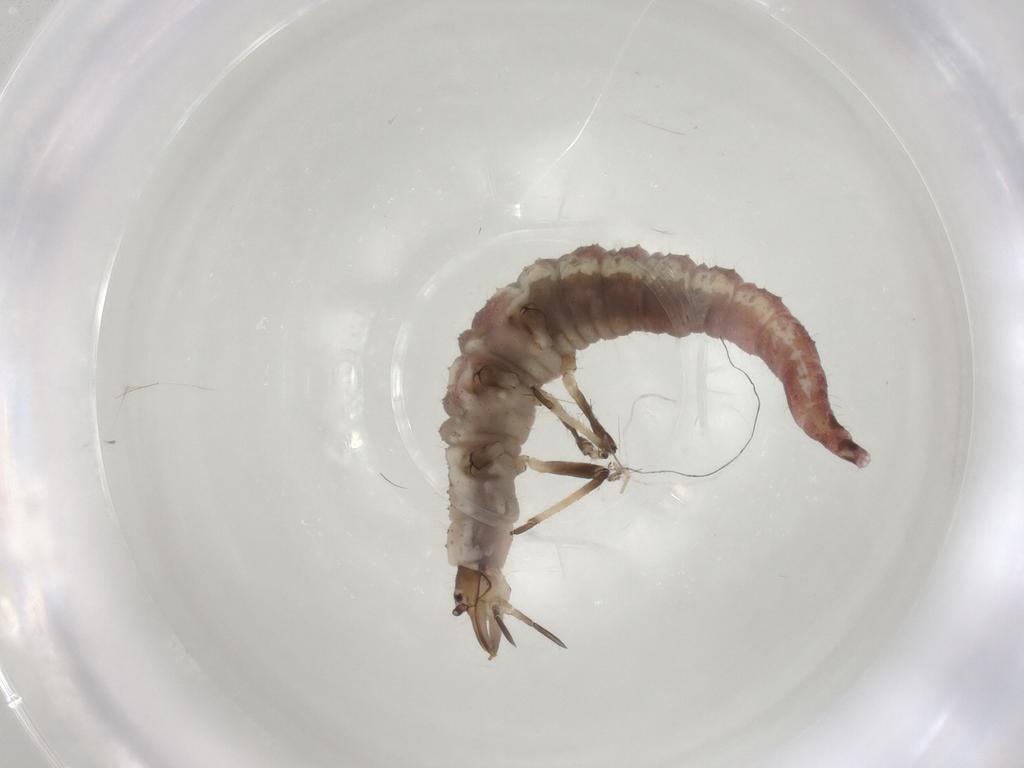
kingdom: Animalia
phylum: Arthropoda
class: Insecta
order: Neuroptera
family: Hemerobiidae
